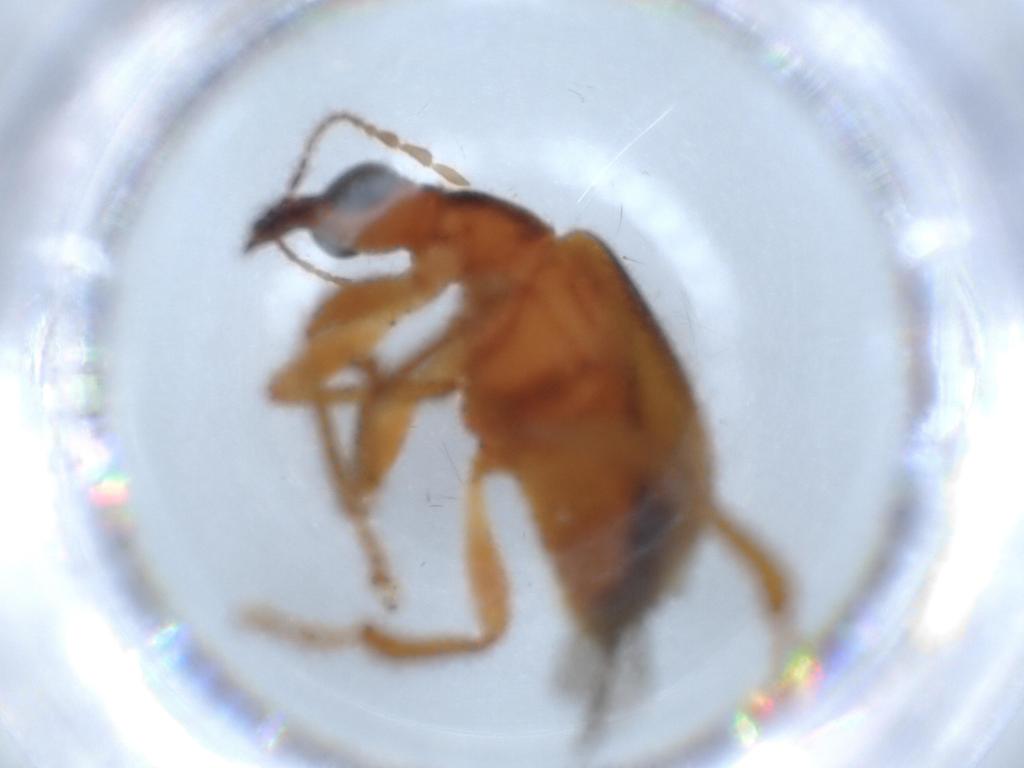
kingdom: Animalia
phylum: Arthropoda
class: Insecta
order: Coleoptera
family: Attelabidae
